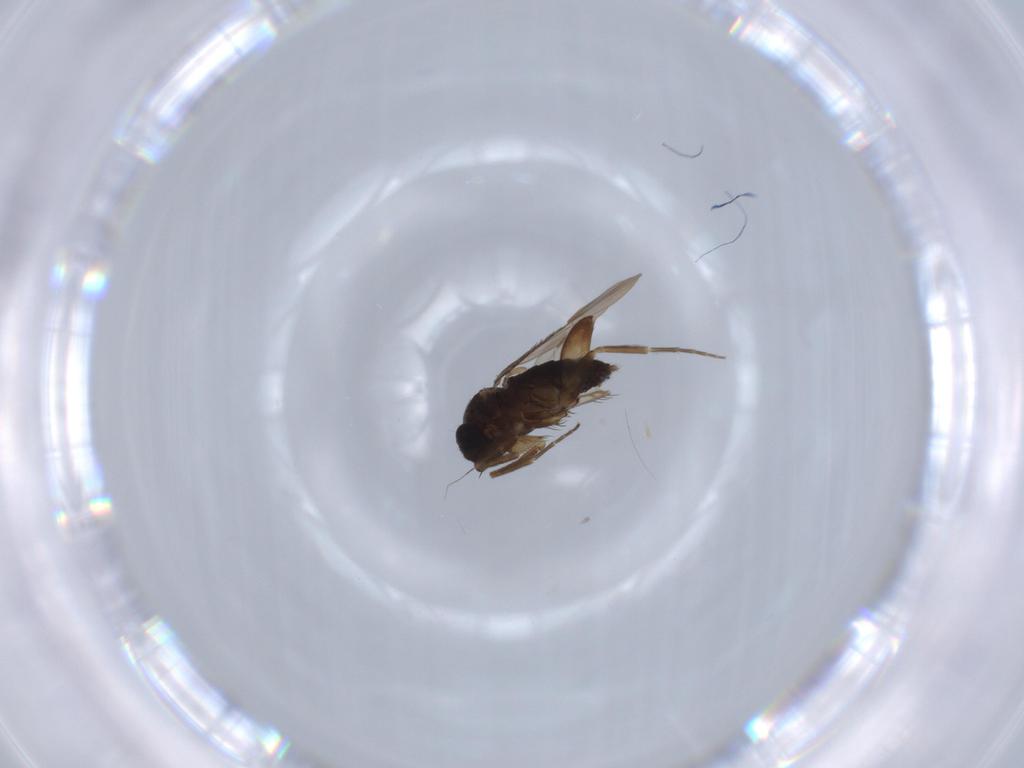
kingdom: Animalia
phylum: Arthropoda
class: Insecta
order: Diptera
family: Phoridae
